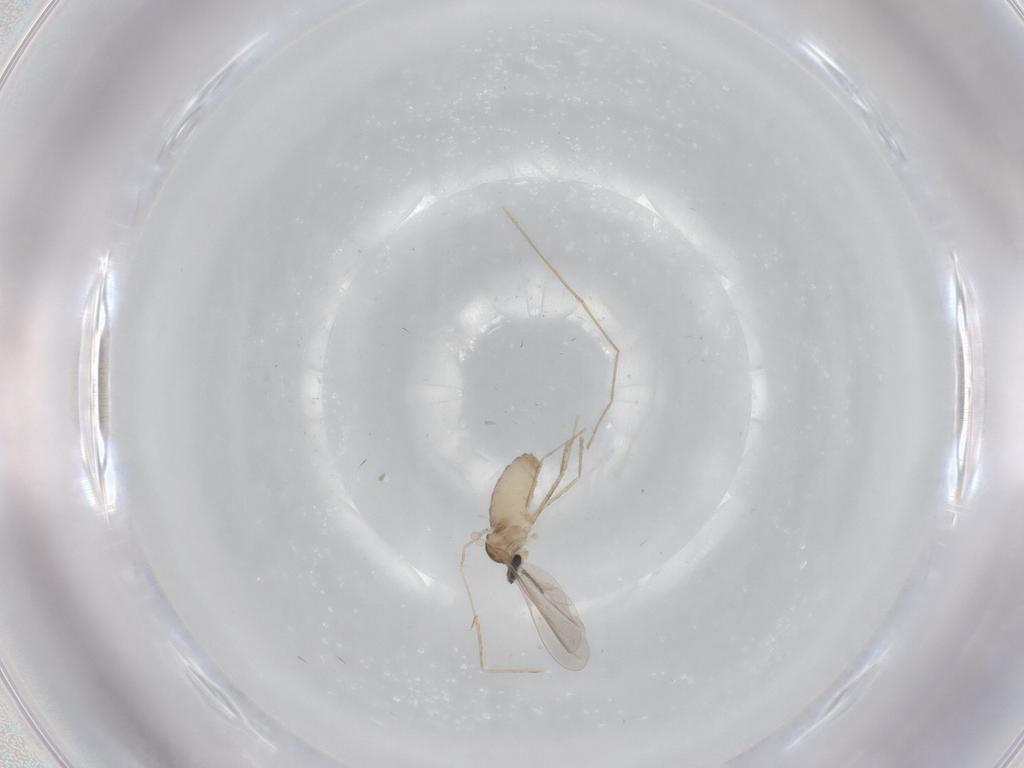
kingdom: Animalia
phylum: Arthropoda
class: Insecta
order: Diptera
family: Cecidomyiidae
